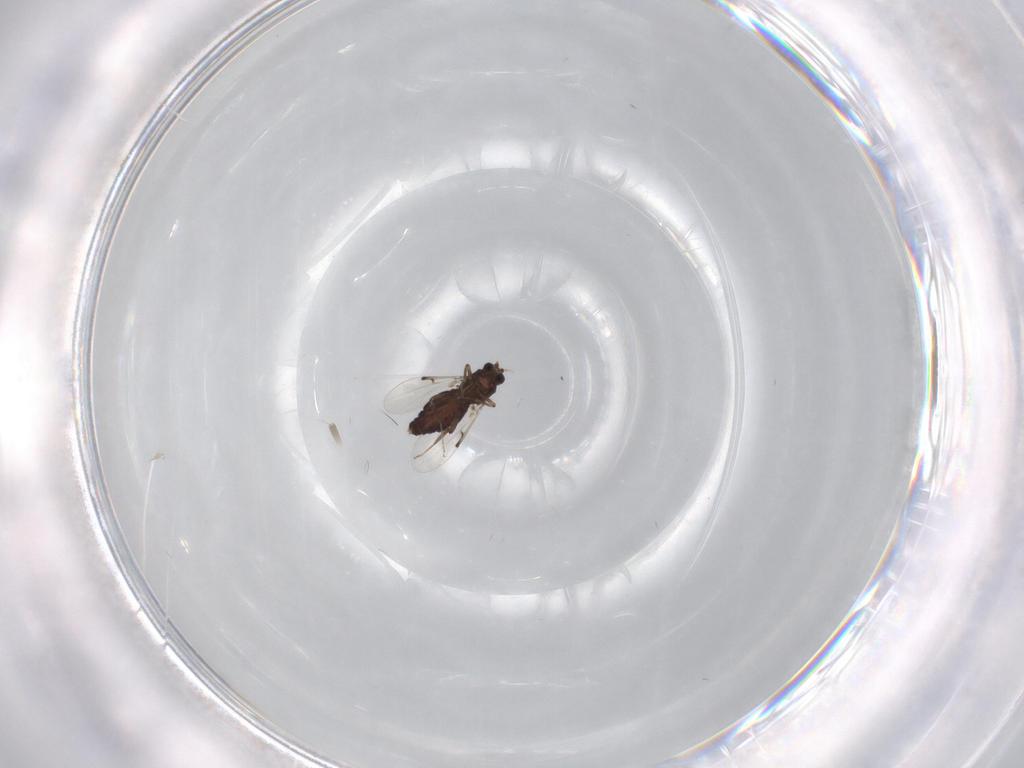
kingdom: Animalia
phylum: Arthropoda
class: Insecta
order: Diptera
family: Ceratopogonidae
